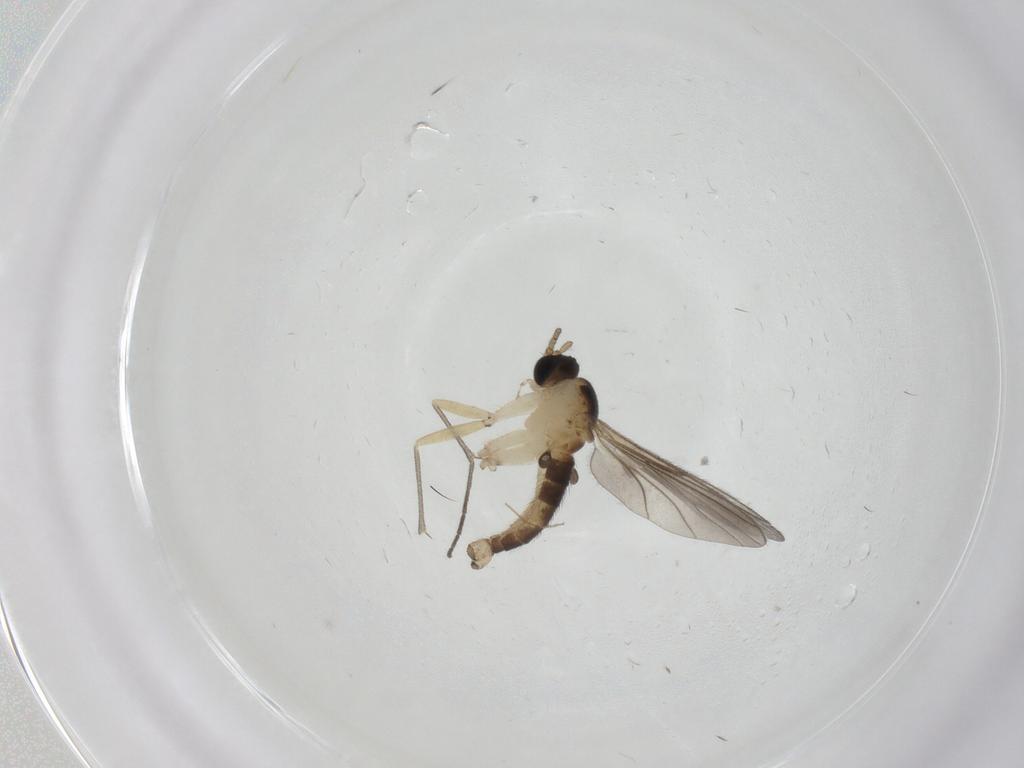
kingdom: Animalia
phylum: Arthropoda
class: Insecta
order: Diptera
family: Sciaridae
